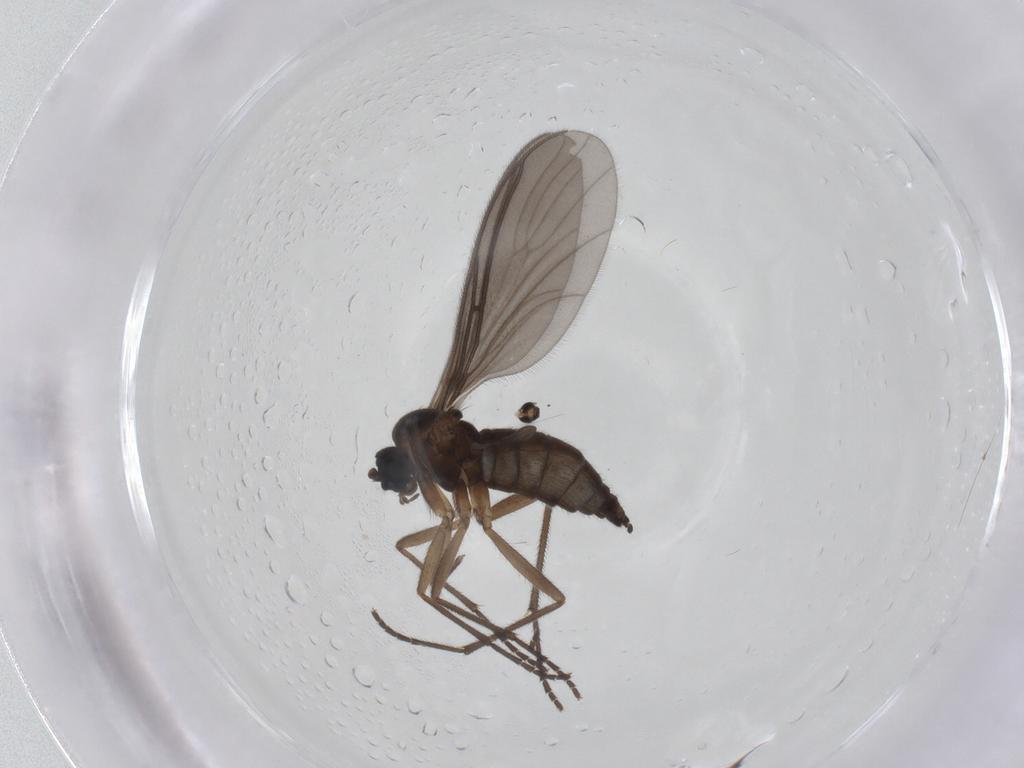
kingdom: Animalia
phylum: Arthropoda
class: Insecta
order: Diptera
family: Sciaridae
